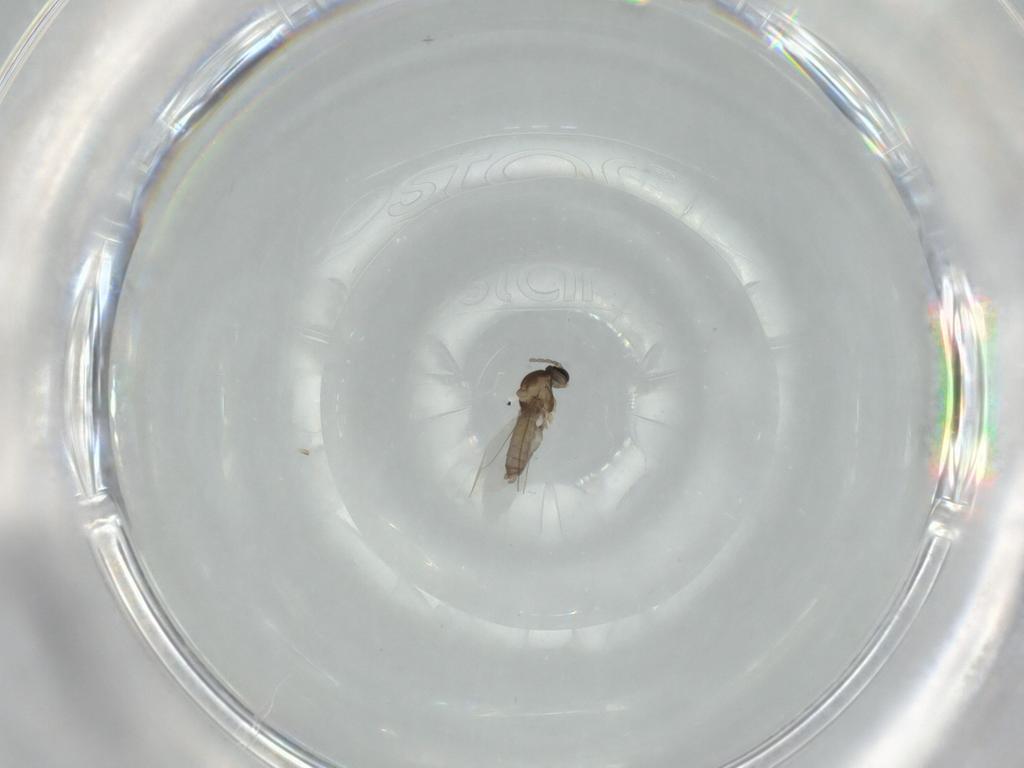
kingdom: Animalia
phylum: Arthropoda
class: Insecta
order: Diptera
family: Cecidomyiidae
